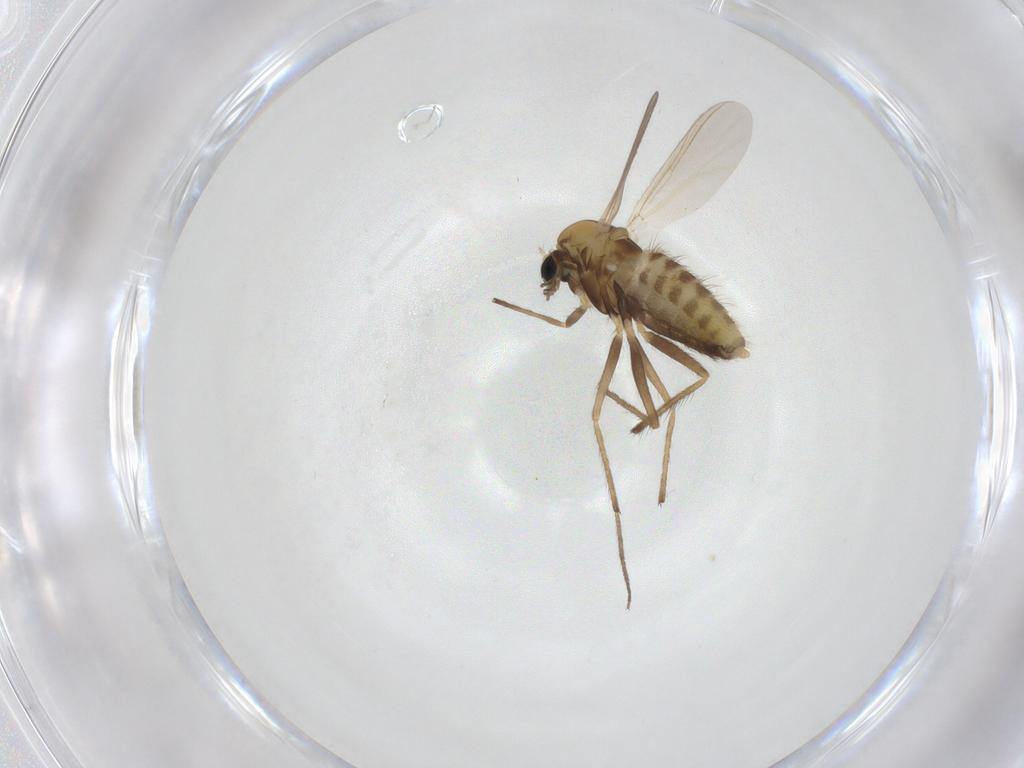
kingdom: Animalia
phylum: Arthropoda
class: Insecta
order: Diptera
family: Chironomidae
